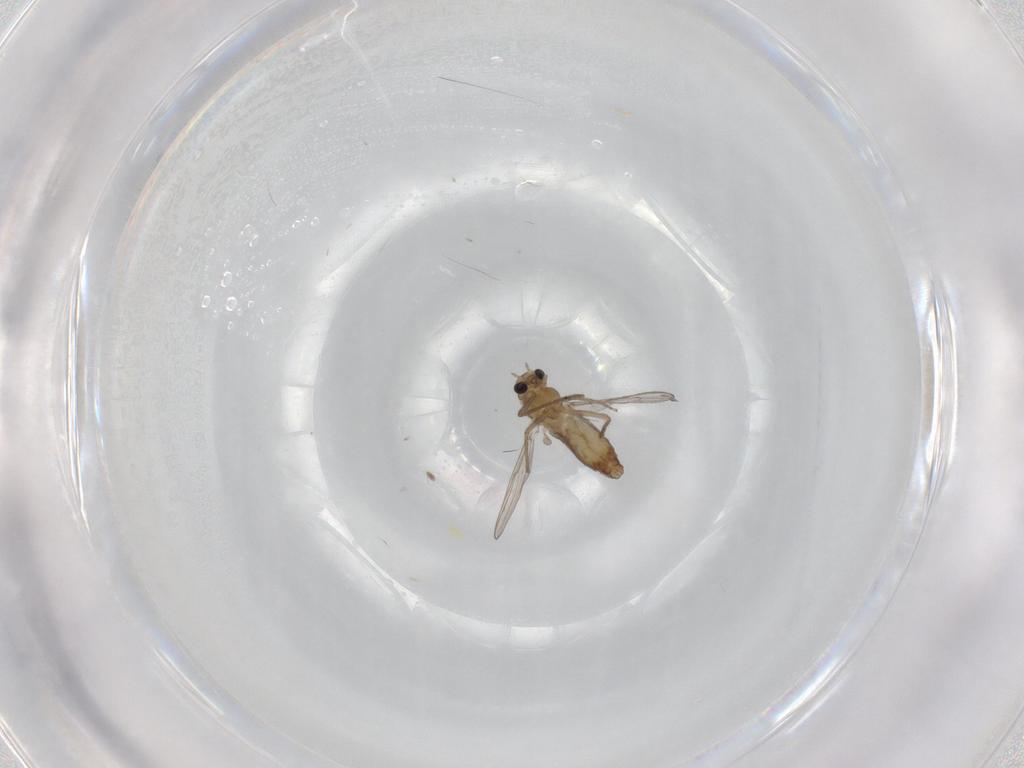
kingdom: Animalia
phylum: Arthropoda
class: Insecta
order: Diptera
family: Chironomidae
